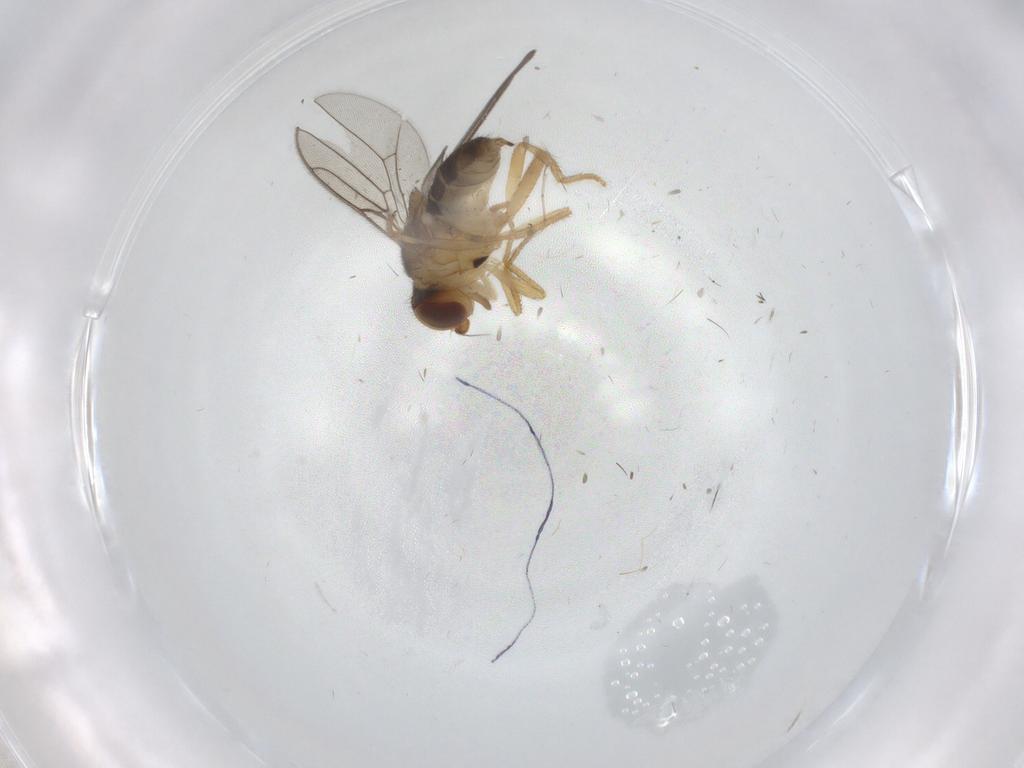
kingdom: Animalia
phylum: Arthropoda
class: Insecta
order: Diptera
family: Chloropidae
